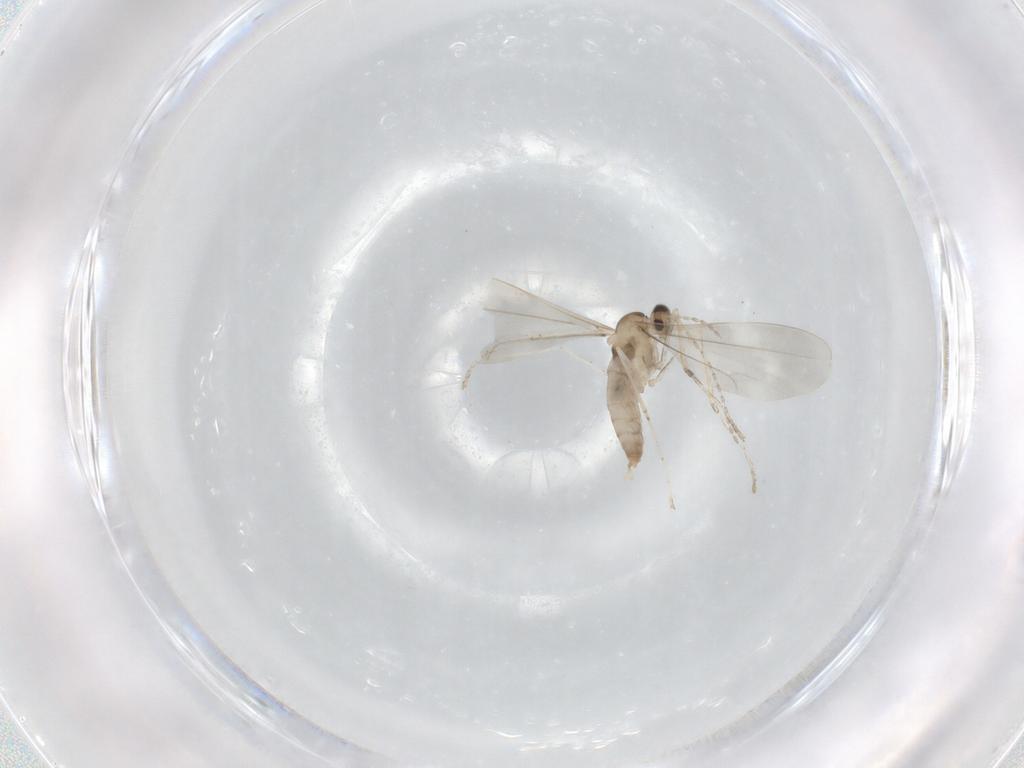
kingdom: Animalia
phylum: Arthropoda
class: Insecta
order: Diptera
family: Cecidomyiidae
